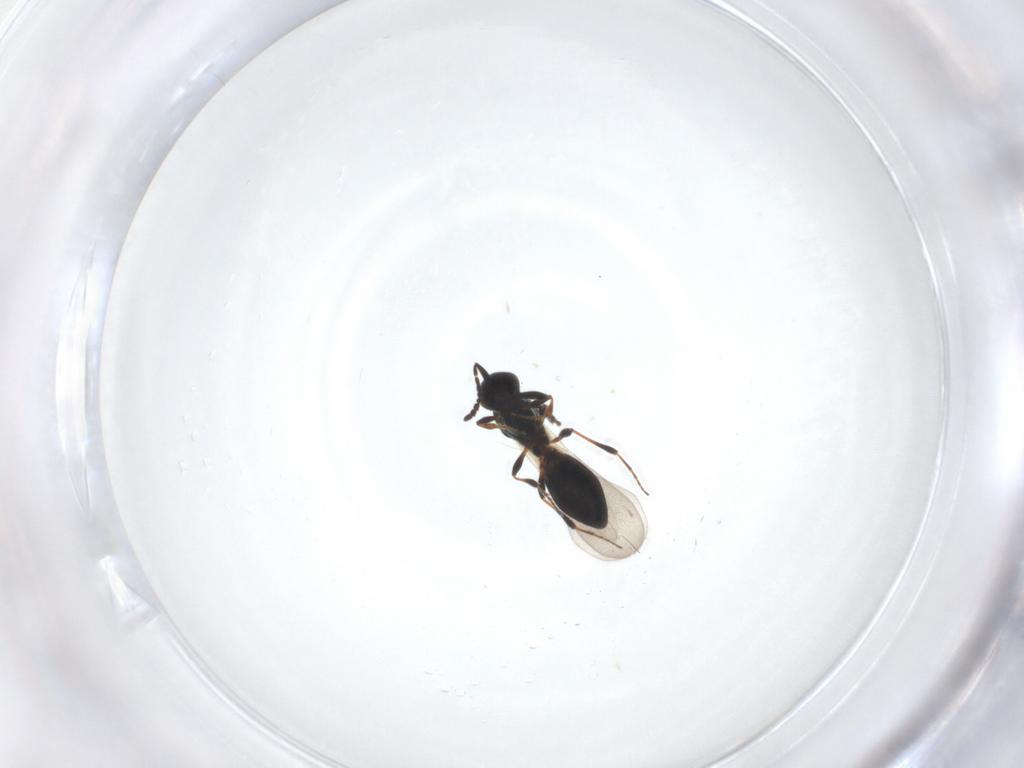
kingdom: Animalia
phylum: Arthropoda
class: Insecta
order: Hymenoptera
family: Platygastridae
